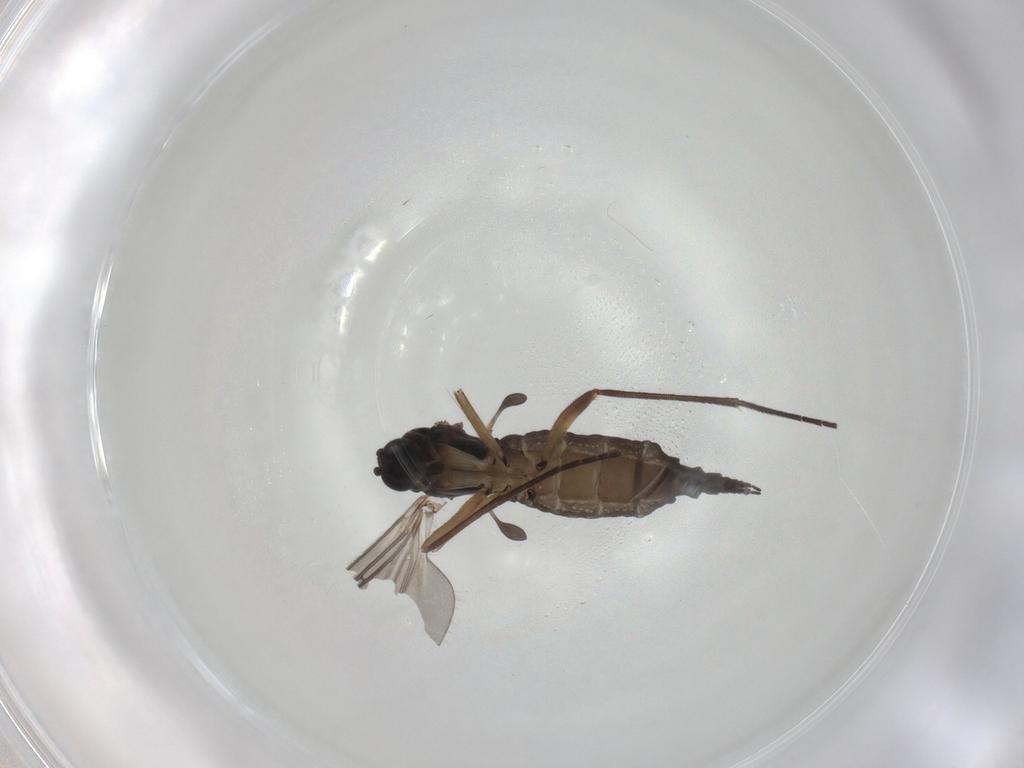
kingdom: Animalia
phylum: Arthropoda
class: Insecta
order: Diptera
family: Sciaridae
